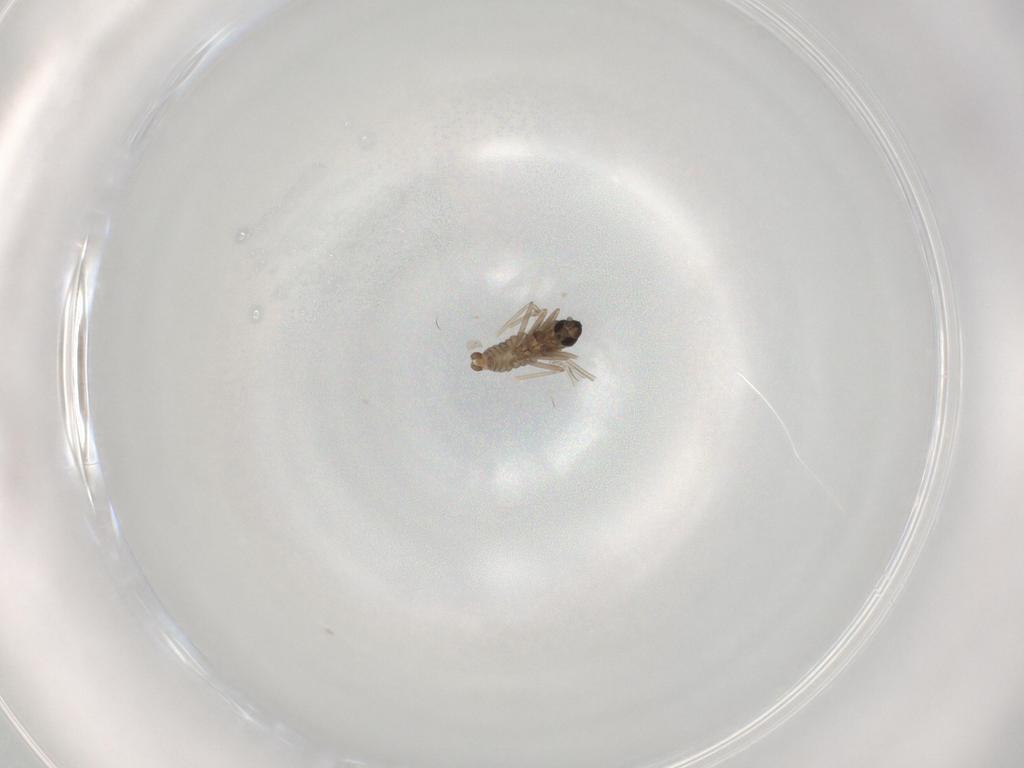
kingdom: Animalia
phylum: Arthropoda
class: Insecta
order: Diptera
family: Cecidomyiidae
